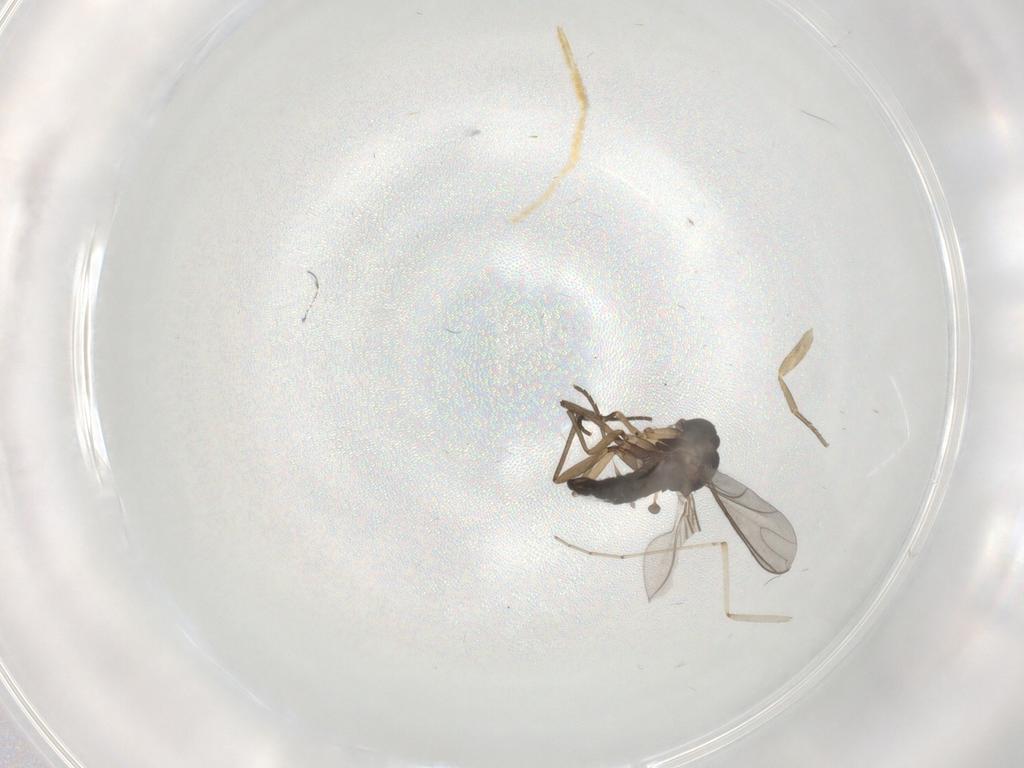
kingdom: Animalia
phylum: Arthropoda
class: Insecta
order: Diptera
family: Sciaridae
